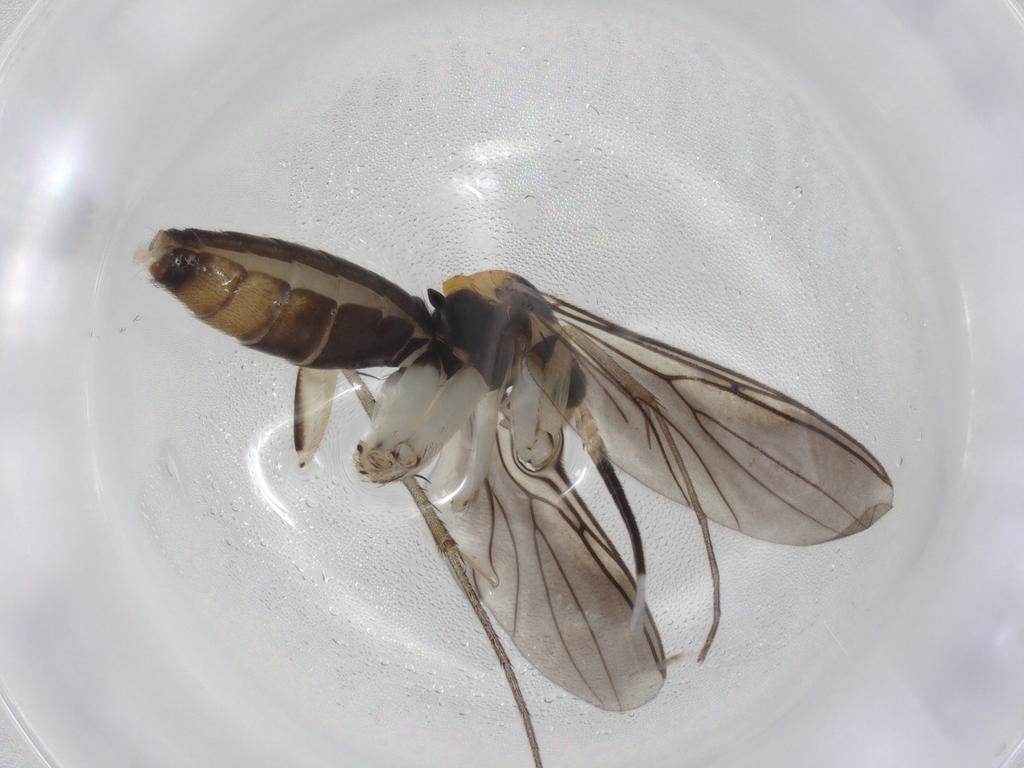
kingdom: Animalia
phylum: Arthropoda
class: Insecta
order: Diptera
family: Mycetophilidae
